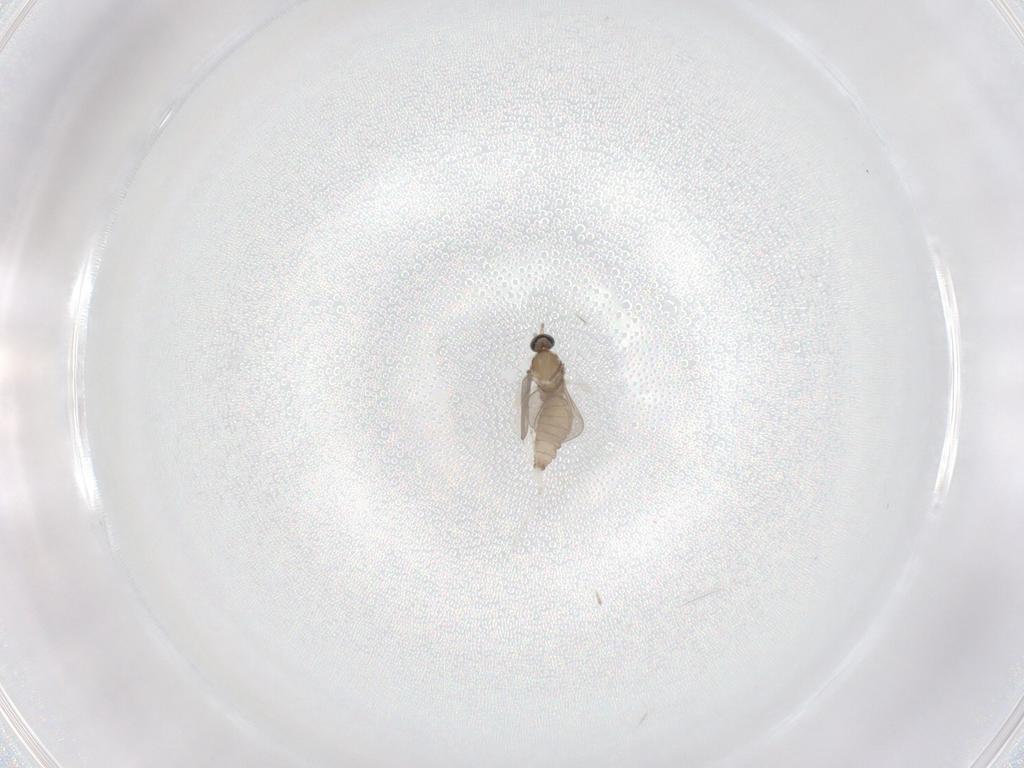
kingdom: Animalia
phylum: Arthropoda
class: Insecta
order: Diptera
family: Cecidomyiidae
